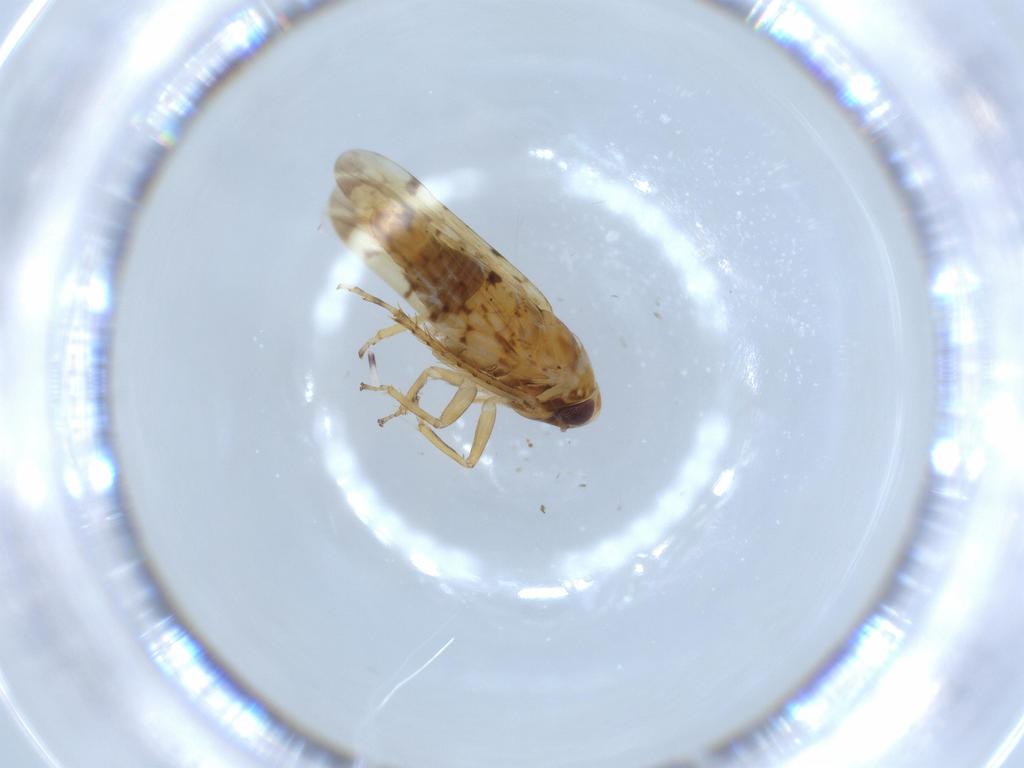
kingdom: Animalia
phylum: Arthropoda
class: Insecta
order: Hemiptera
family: Cicadellidae
